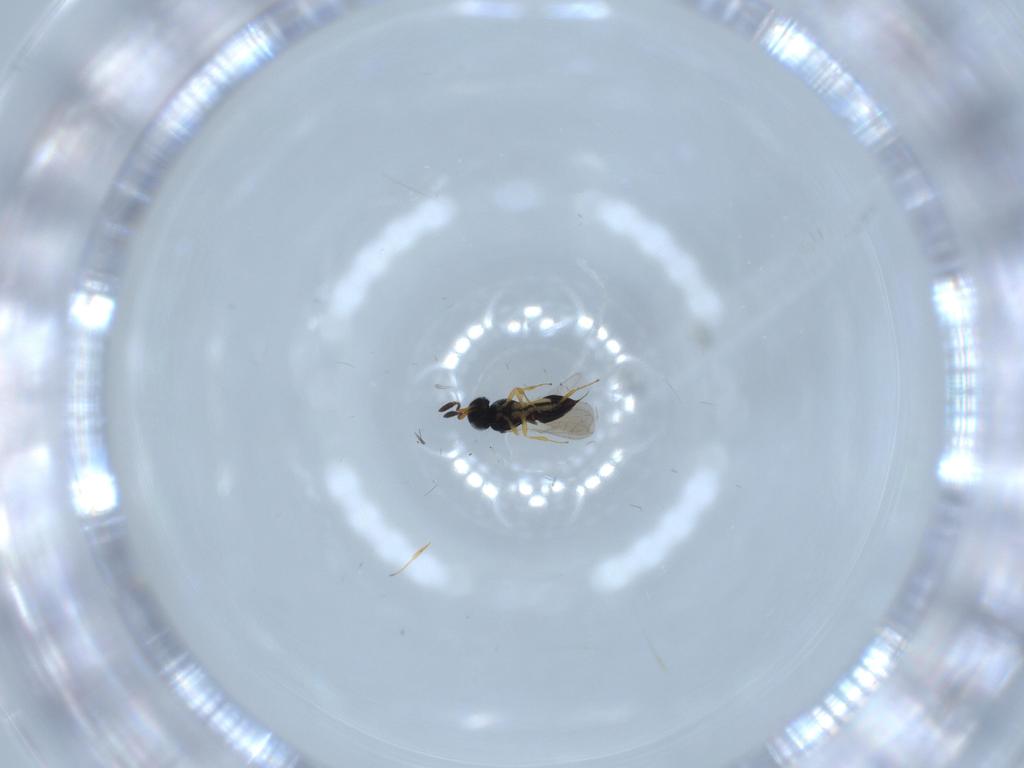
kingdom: Animalia
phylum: Arthropoda
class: Insecta
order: Hymenoptera
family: Scelionidae
